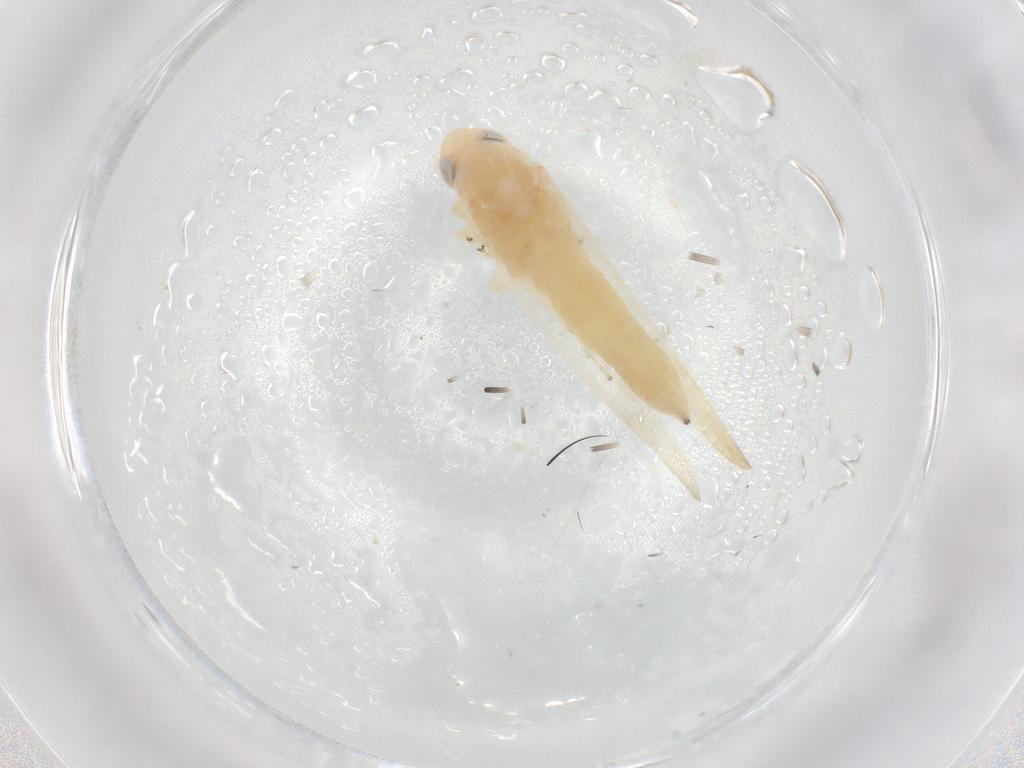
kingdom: Animalia
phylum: Arthropoda
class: Insecta
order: Hemiptera
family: Cicadellidae
